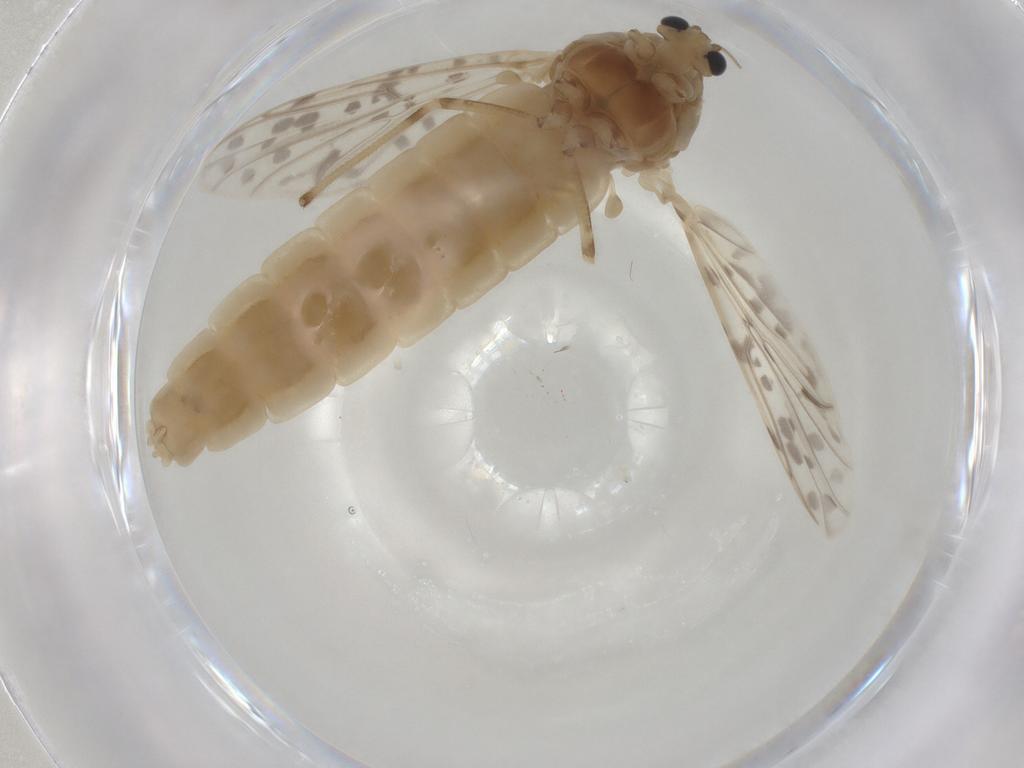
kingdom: Animalia
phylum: Arthropoda
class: Insecta
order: Diptera
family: Chironomidae
